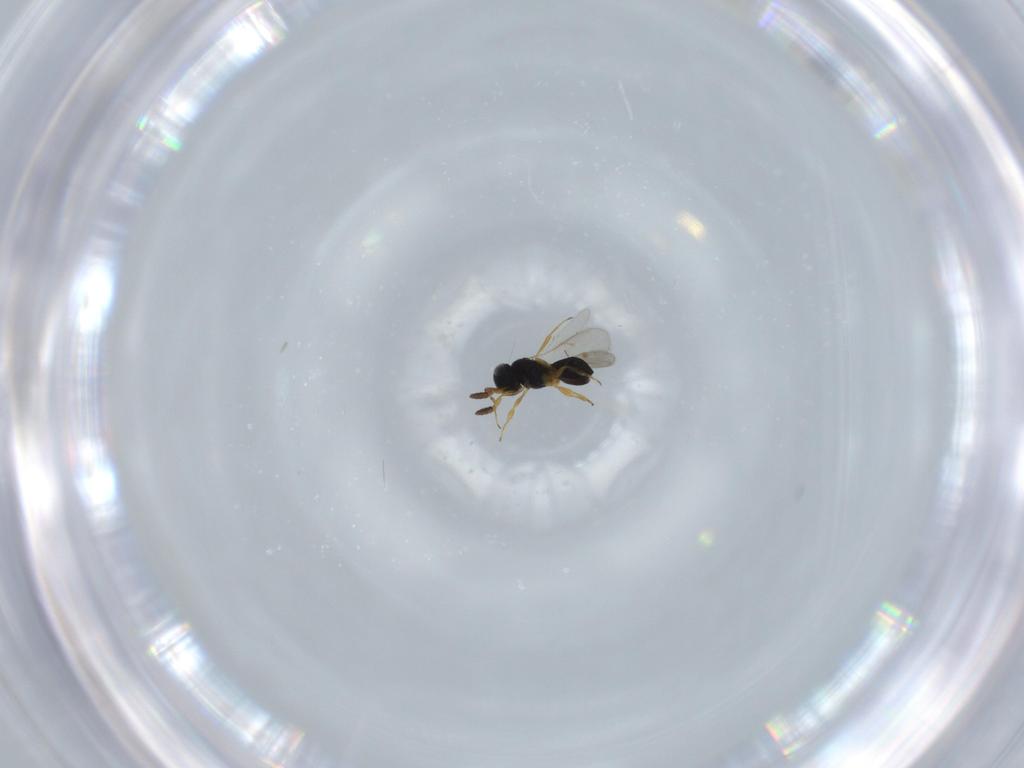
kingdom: Animalia
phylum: Arthropoda
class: Insecta
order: Hymenoptera
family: Scelionidae
